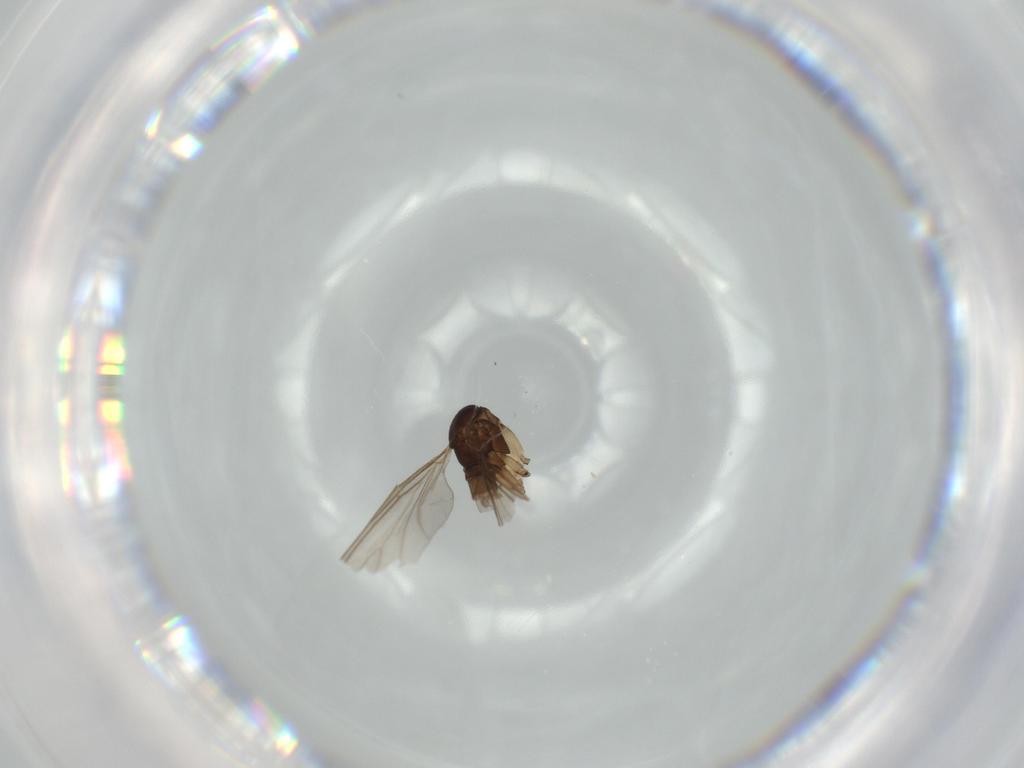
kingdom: Animalia
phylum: Arthropoda
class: Insecta
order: Diptera
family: Sciaridae
